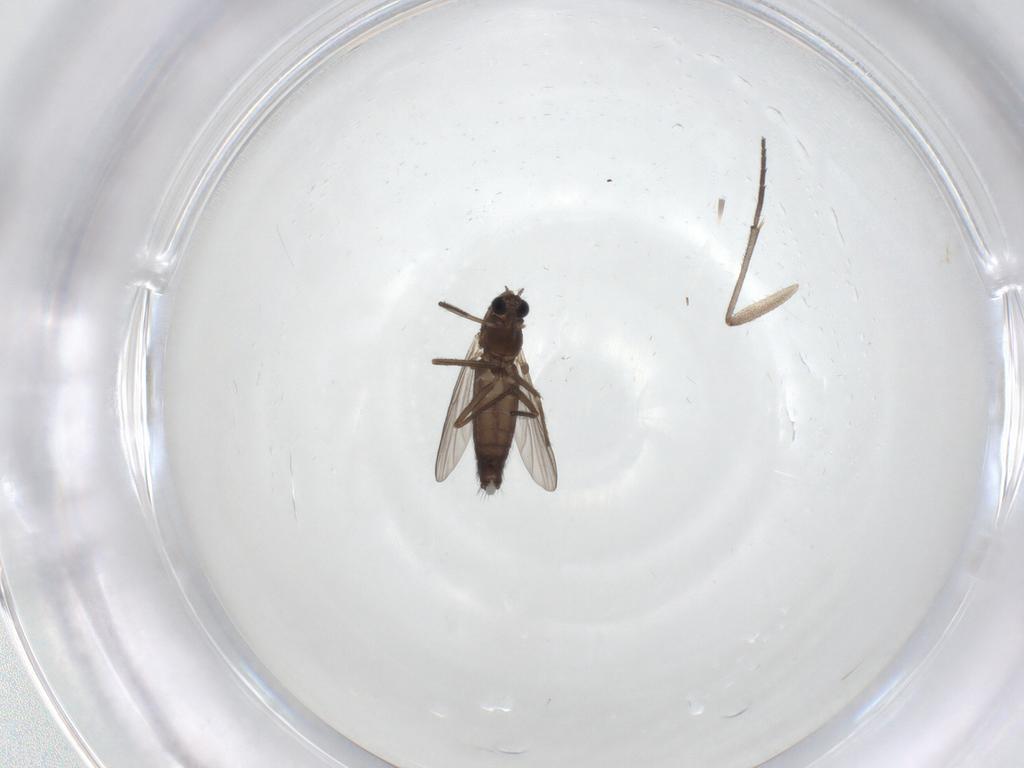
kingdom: Animalia
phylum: Arthropoda
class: Insecta
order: Diptera
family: Chironomidae
